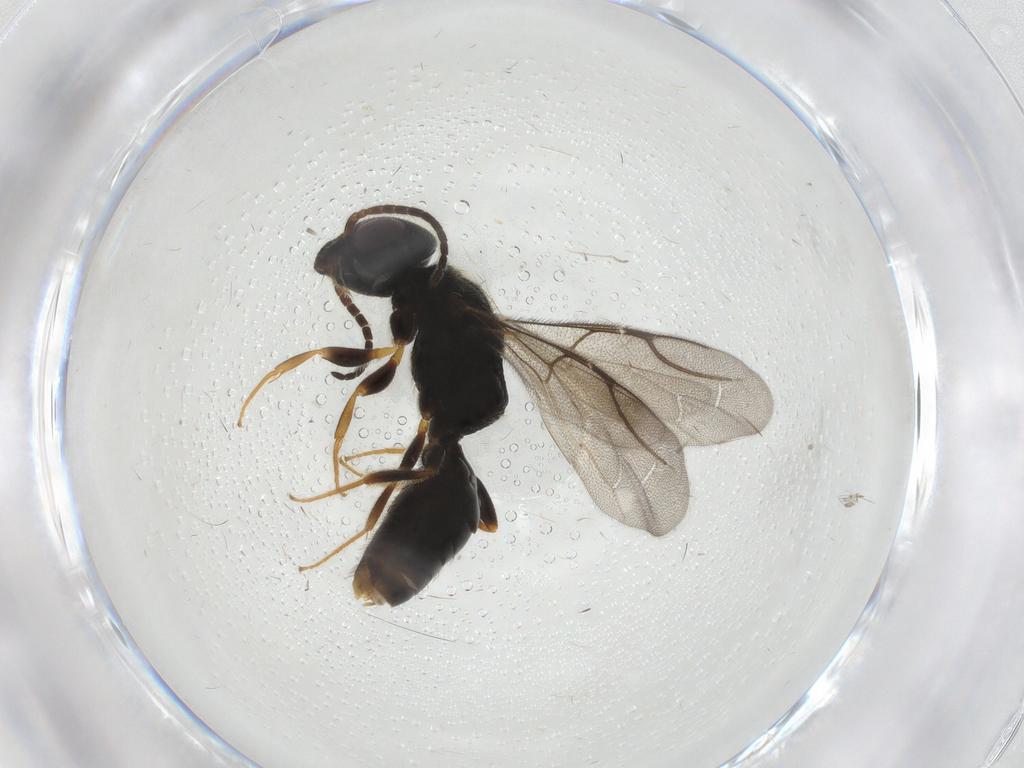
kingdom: Animalia
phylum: Arthropoda
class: Insecta
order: Hymenoptera
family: Bethylidae
